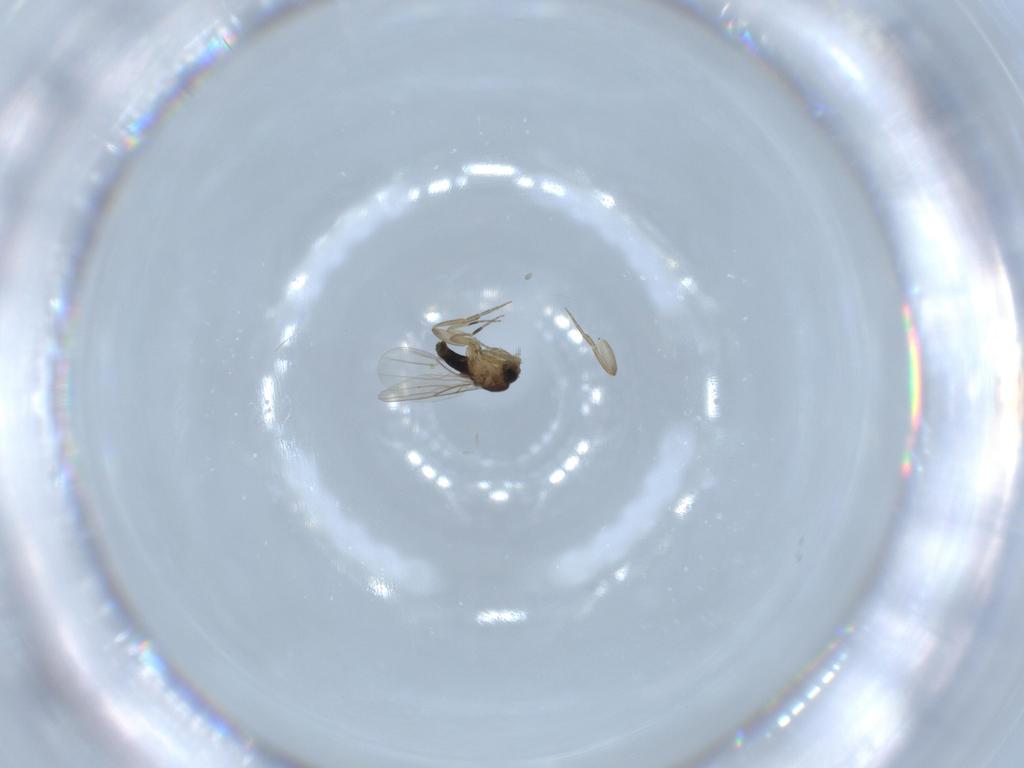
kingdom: Animalia
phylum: Arthropoda
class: Insecta
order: Diptera
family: Phoridae
